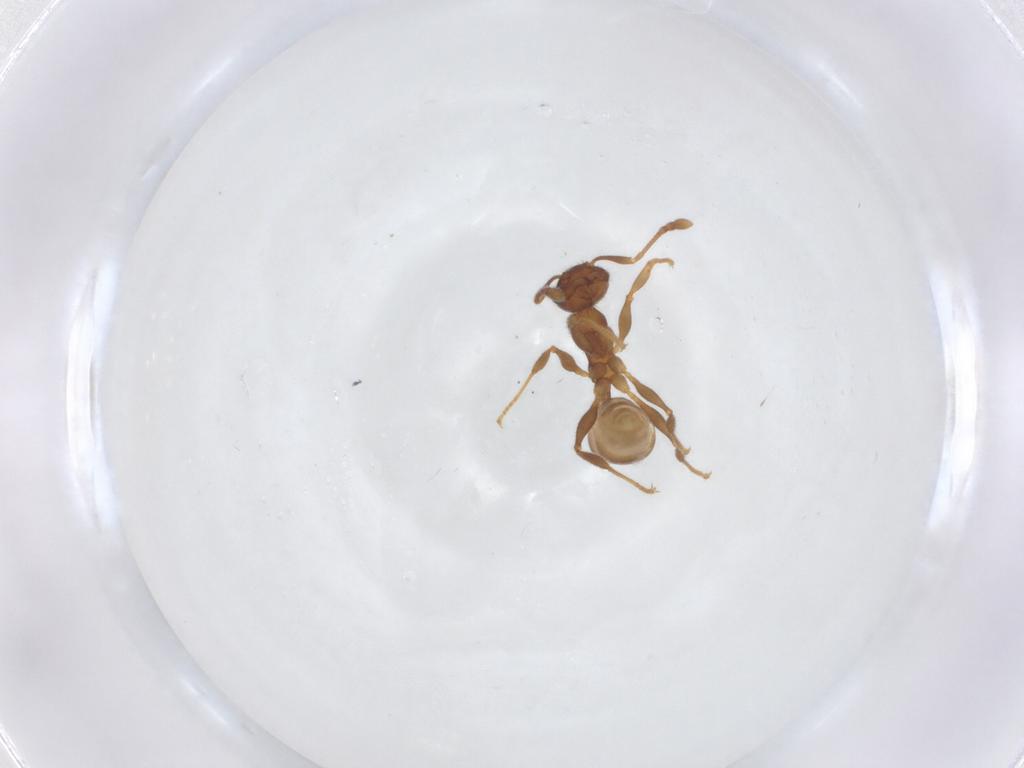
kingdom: Animalia
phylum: Arthropoda
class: Insecta
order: Hymenoptera
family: Formicidae
